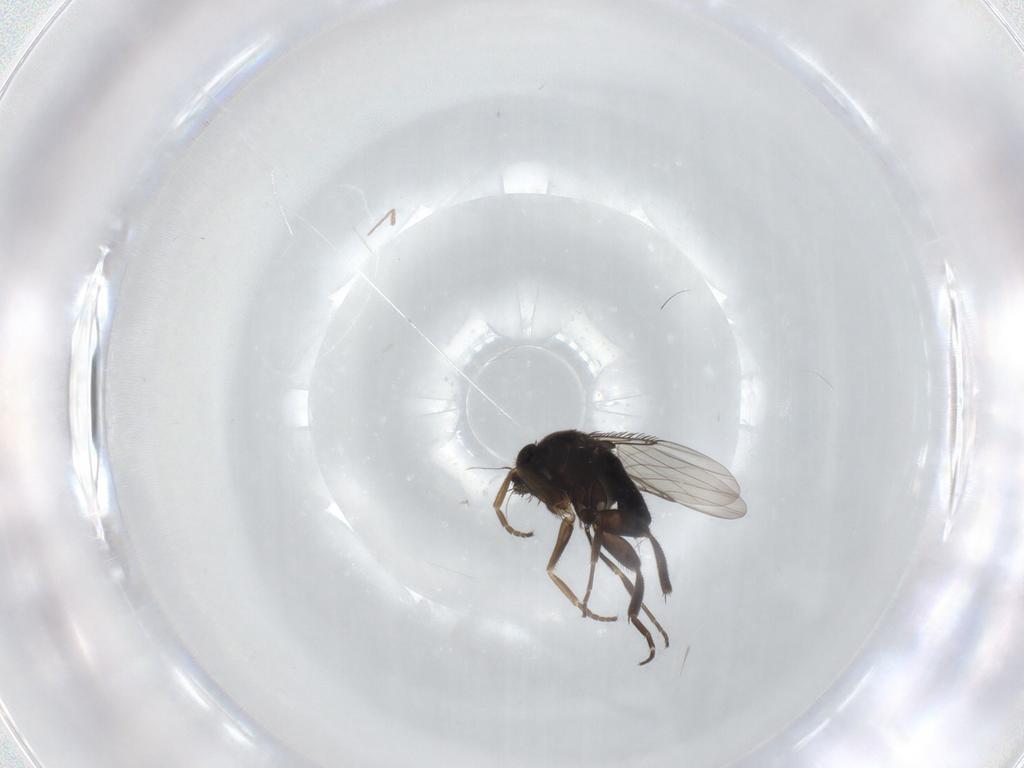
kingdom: Animalia
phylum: Arthropoda
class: Insecta
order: Diptera
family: Phoridae
